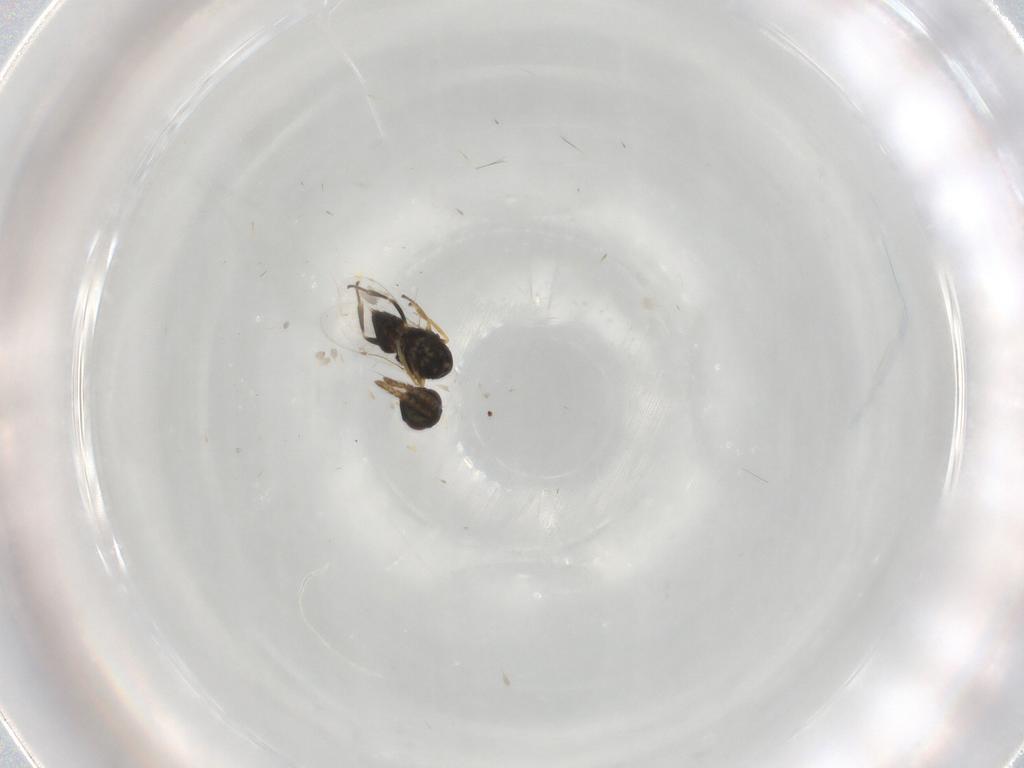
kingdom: Animalia
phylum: Arthropoda
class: Insecta
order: Hymenoptera
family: Encyrtidae
